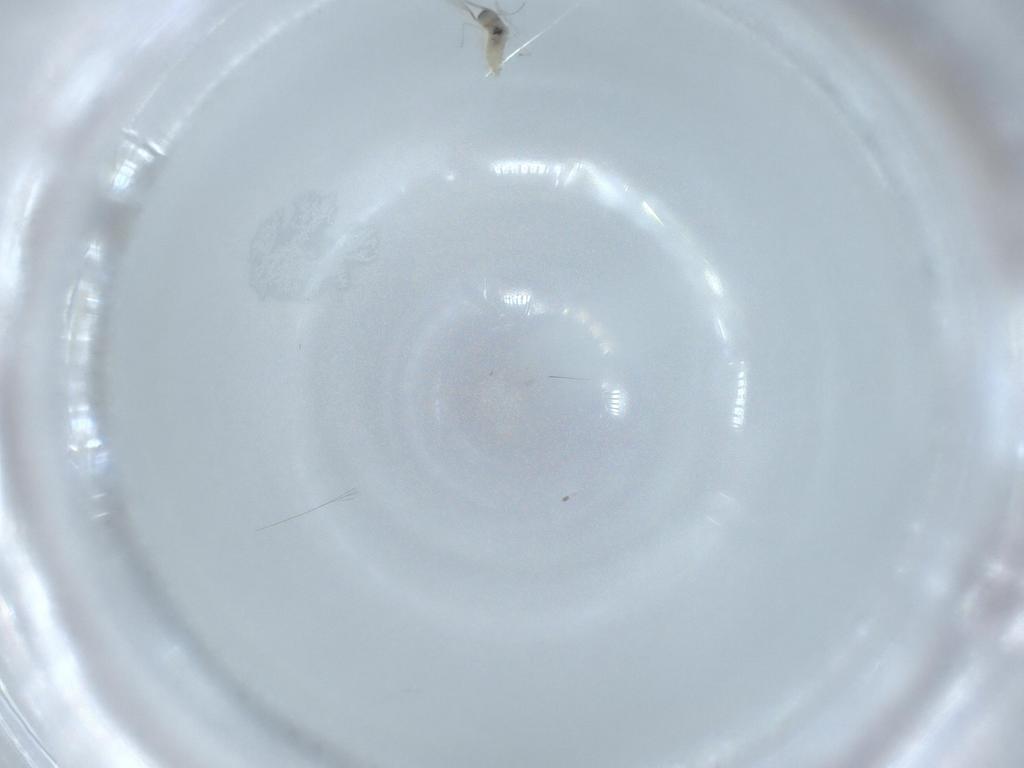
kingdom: Animalia
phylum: Arthropoda
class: Insecta
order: Diptera
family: Cecidomyiidae
